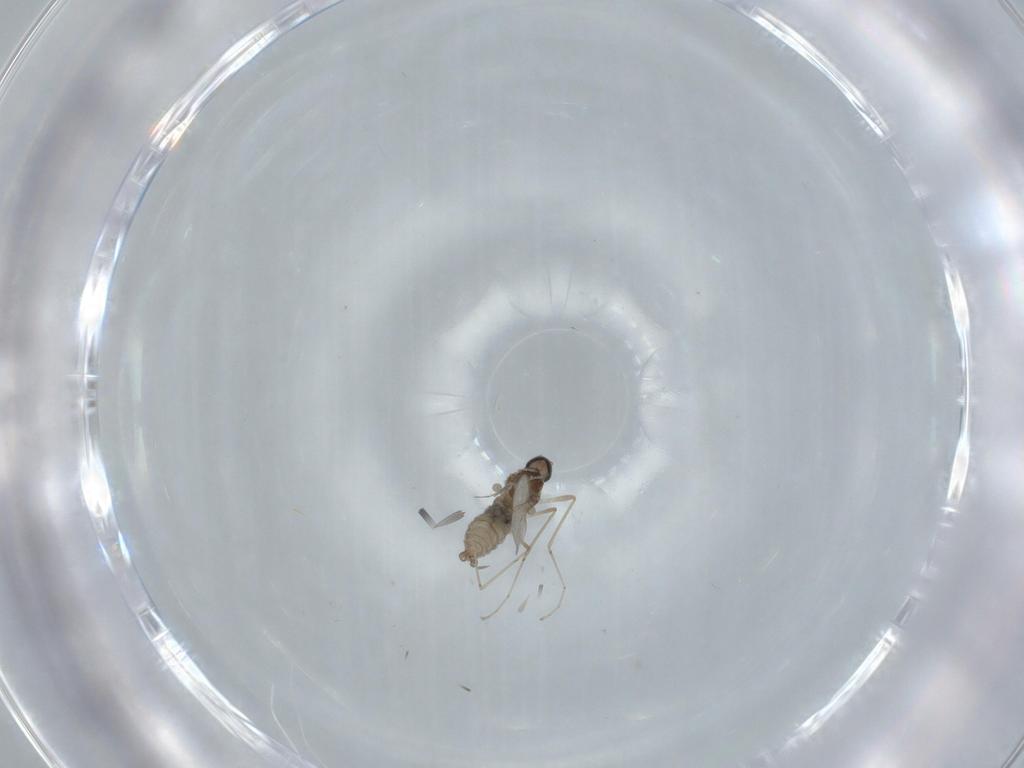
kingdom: Animalia
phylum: Arthropoda
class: Insecta
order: Diptera
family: Cecidomyiidae
